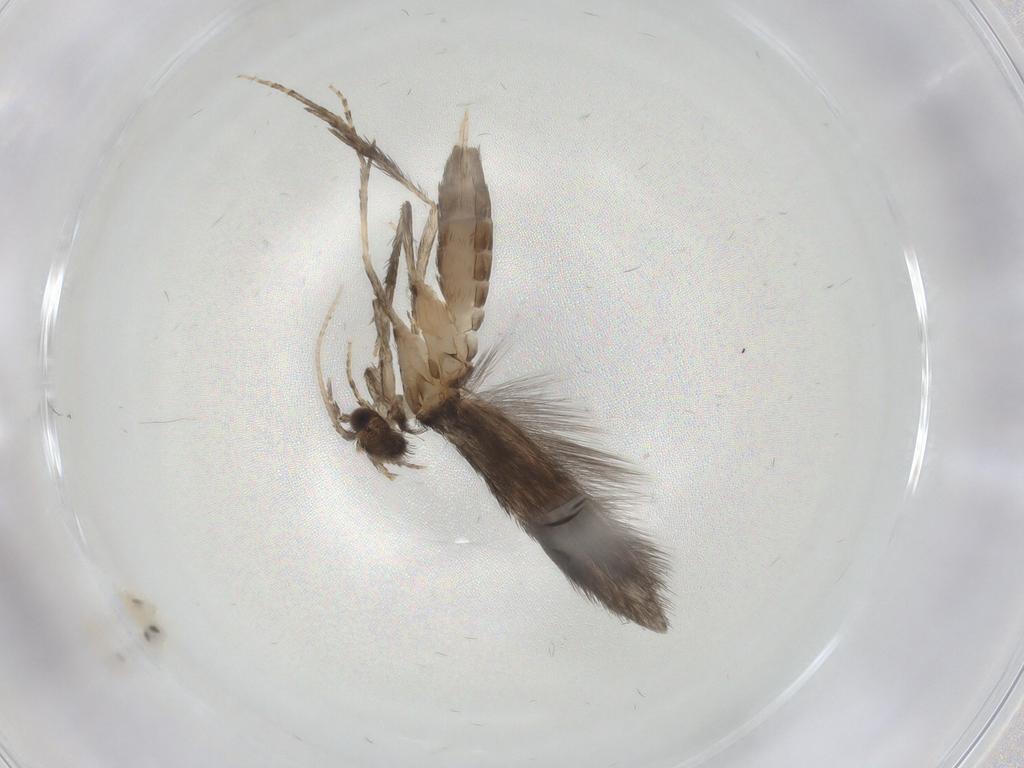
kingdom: Animalia
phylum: Arthropoda
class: Insecta
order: Trichoptera
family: Hydroptilidae
